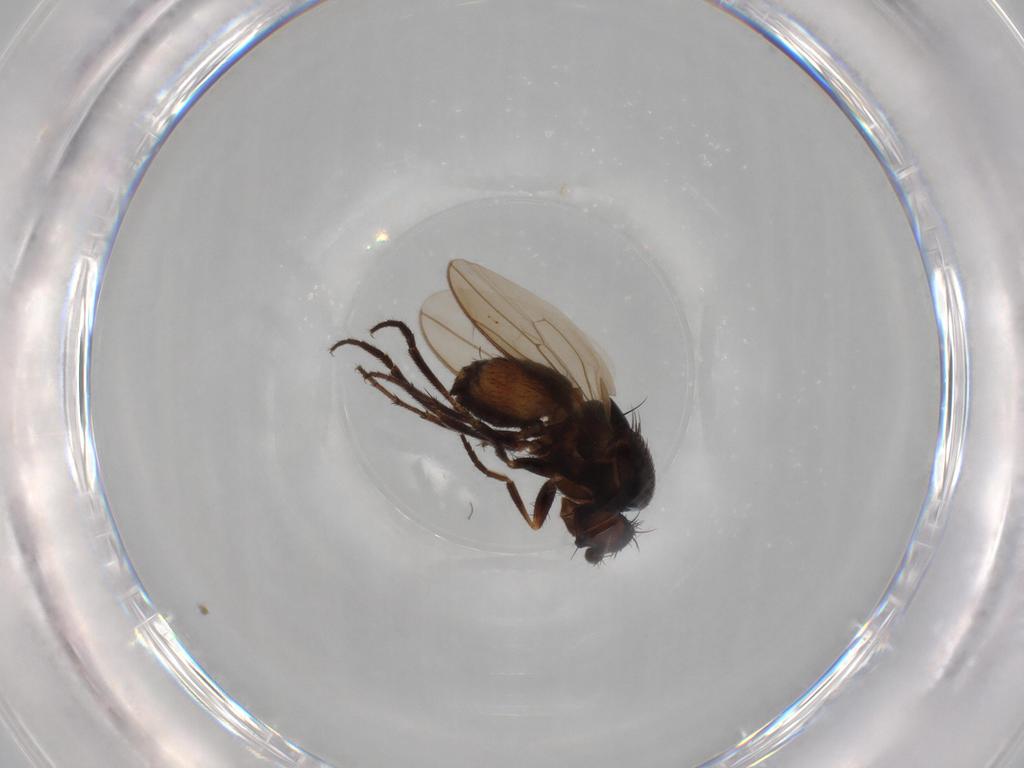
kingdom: Animalia
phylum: Arthropoda
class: Insecta
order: Diptera
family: Sphaeroceridae
